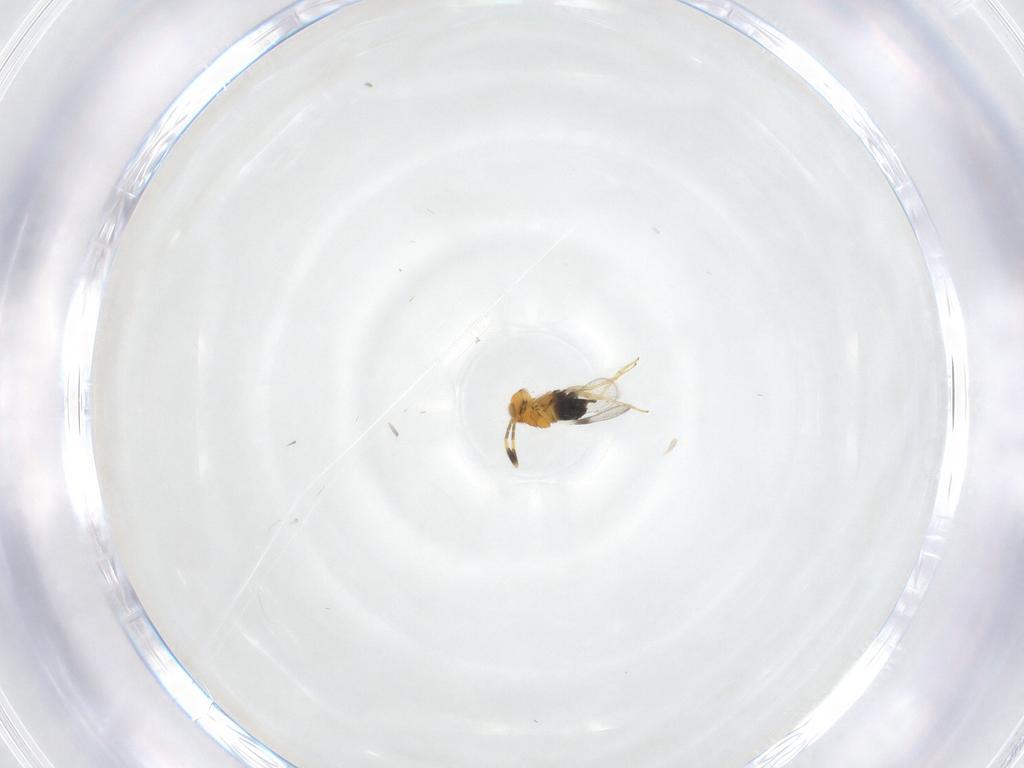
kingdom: Animalia
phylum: Arthropoda
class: Insecta
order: Hymenoptera
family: Aphelinidae
